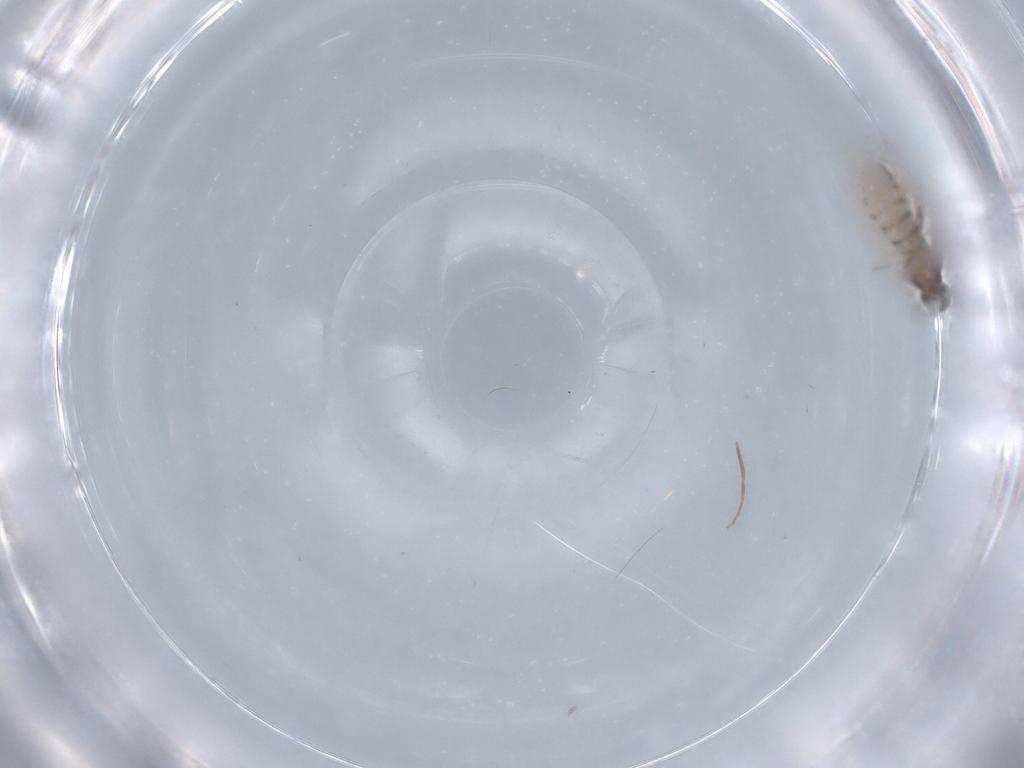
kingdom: Animalia
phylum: Arthropoda
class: Insecta
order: Diptera
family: Cecidomyiidae
